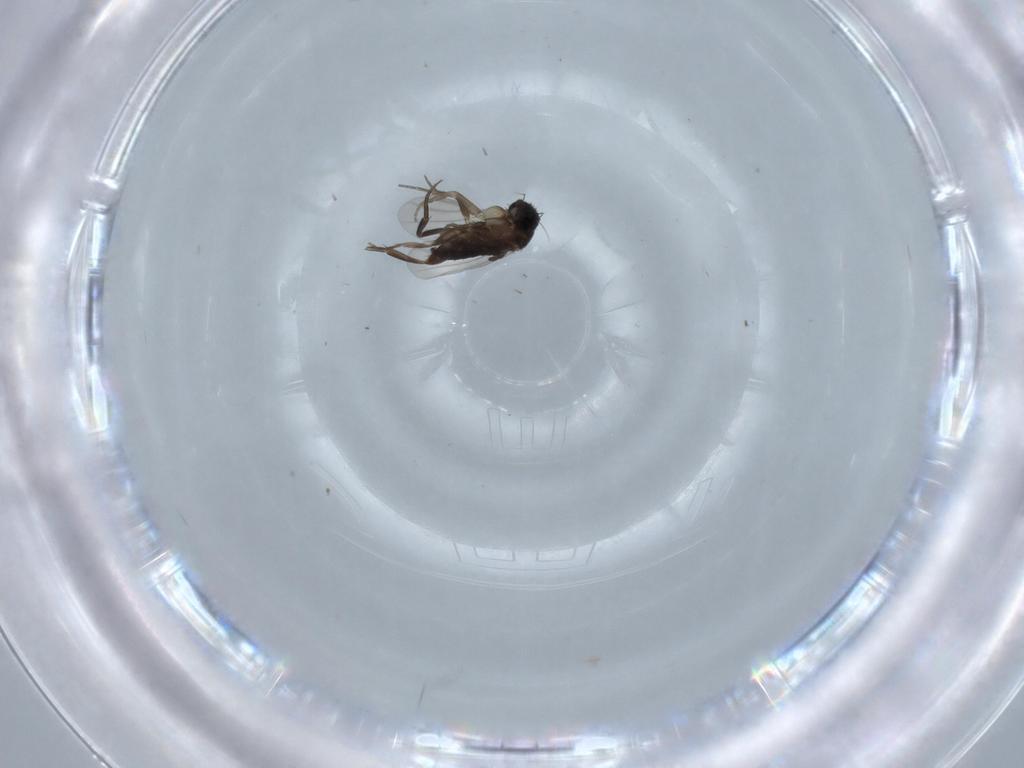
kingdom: Animalia
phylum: Arthropoda
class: Insecta
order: Diptera
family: Phoridae
